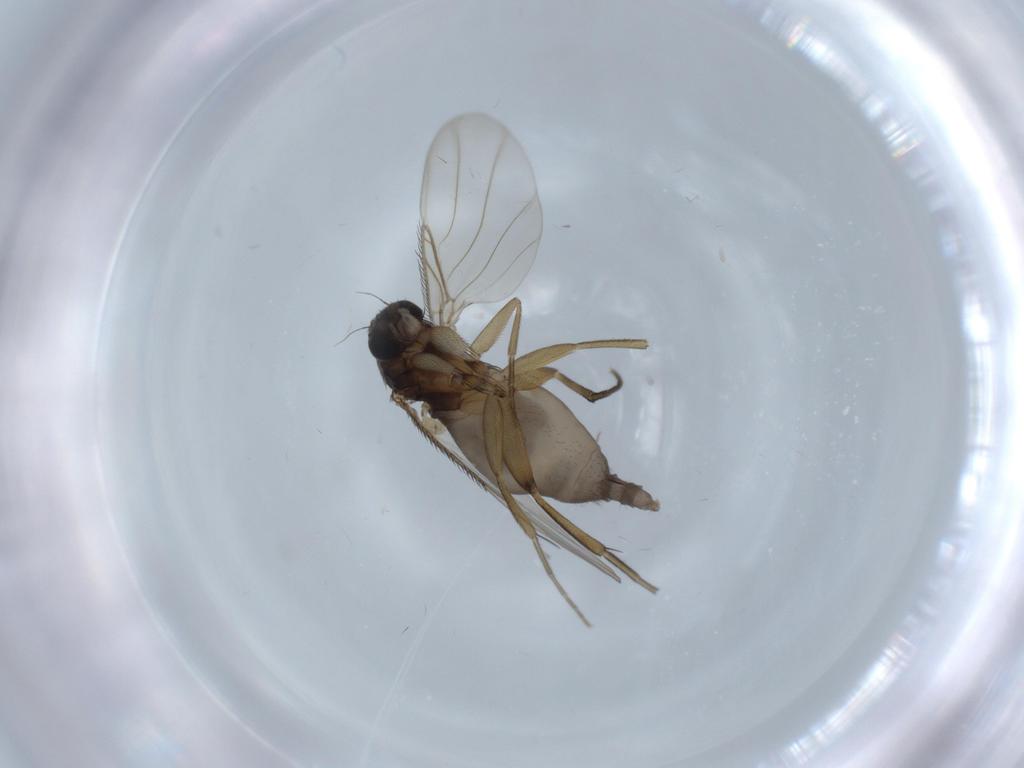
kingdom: Animalia
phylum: Arthropoda
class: Insecta
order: Diptera
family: Phoridae
